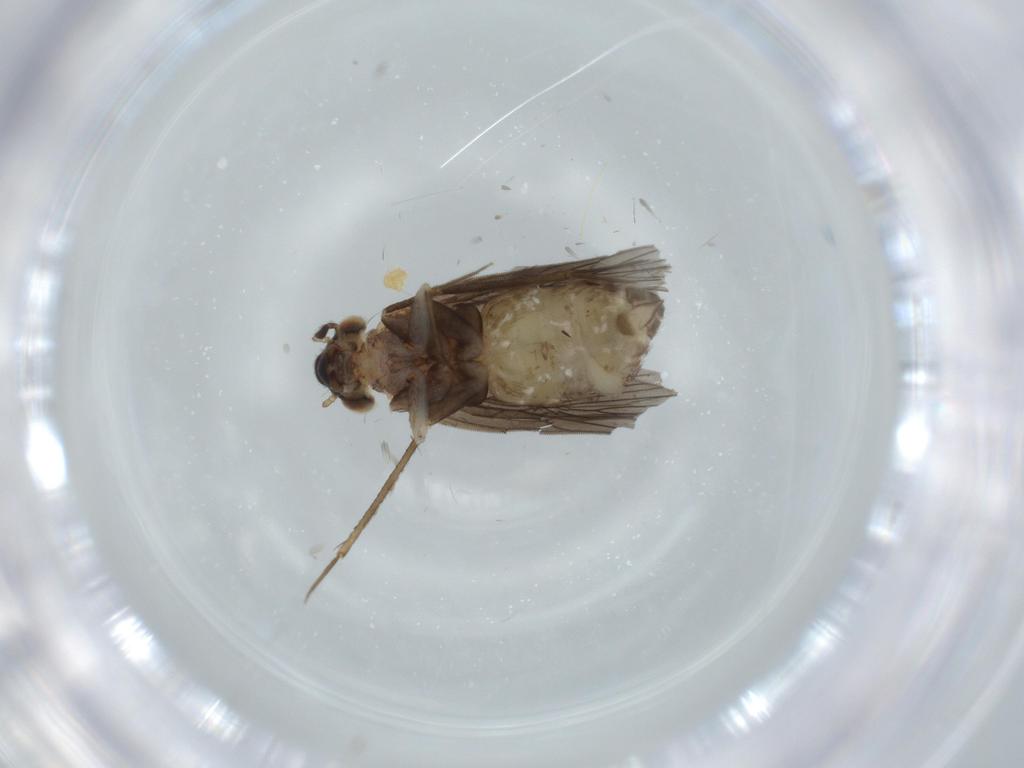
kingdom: Animalia
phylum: Arthropoda
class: Insecta
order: Psocodea
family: Lepidopsocidae
